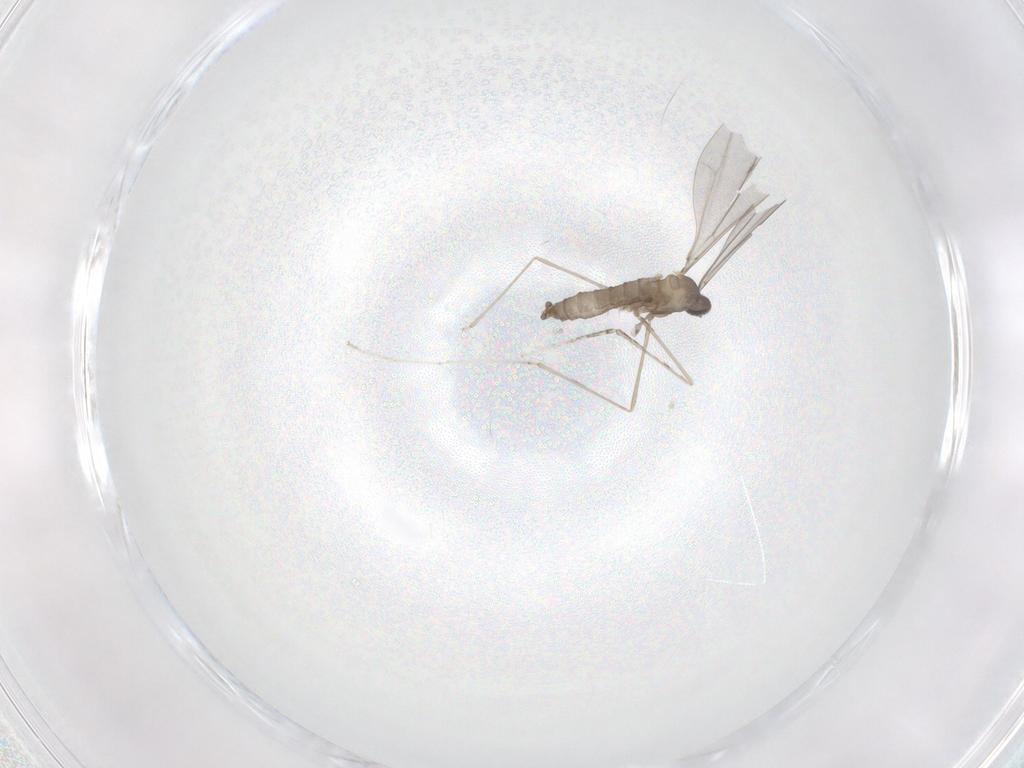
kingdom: Animalia
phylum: Arthropoda
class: Insecta
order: Diptera
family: Cecidomyiidae
